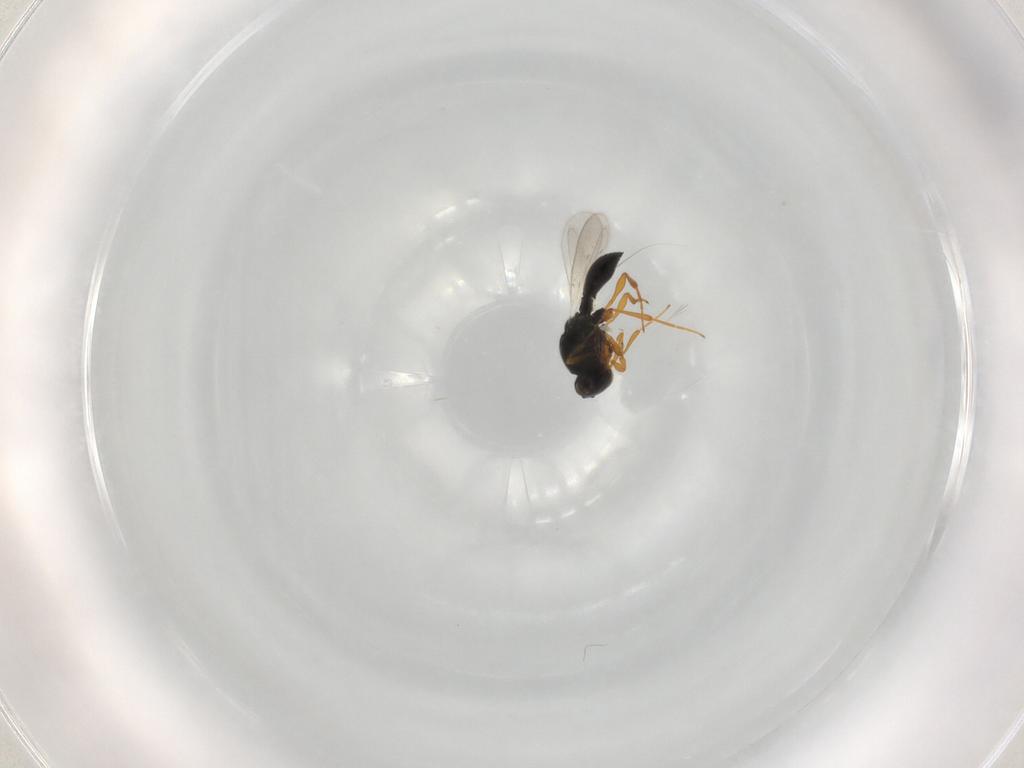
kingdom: Animalia
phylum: Arthropoda
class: Insecta
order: Hymenoptera
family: Platygastridae
